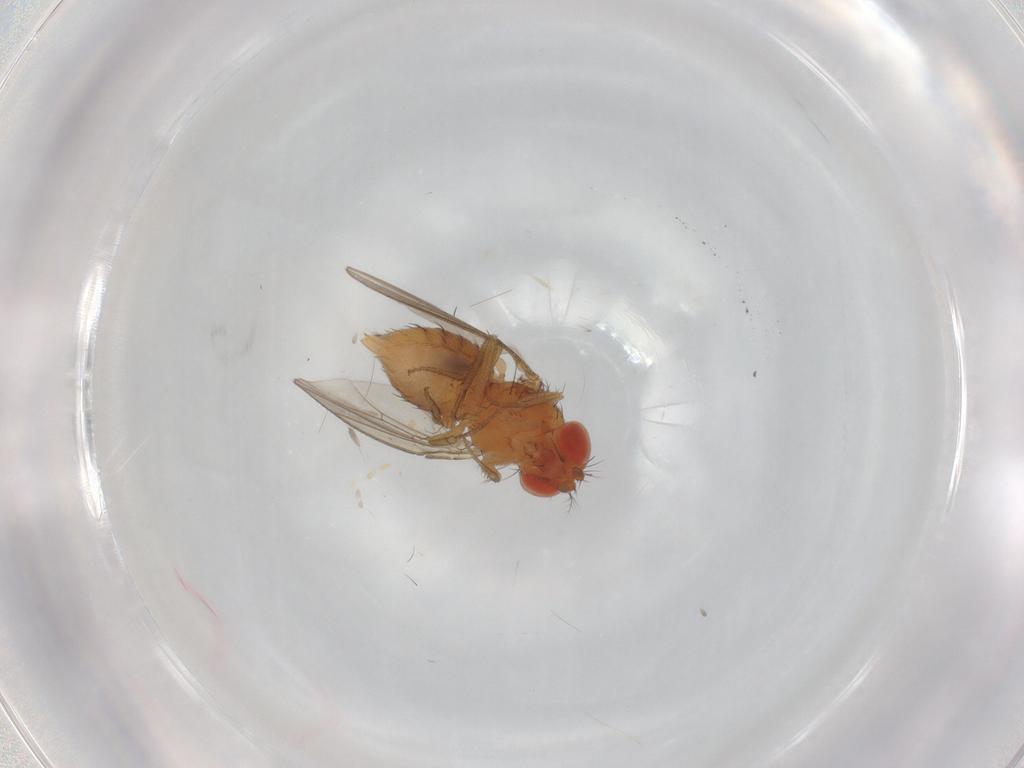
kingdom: Animalia
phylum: Arthropoda
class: Insecta
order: Diptera
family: Drosophilidae
